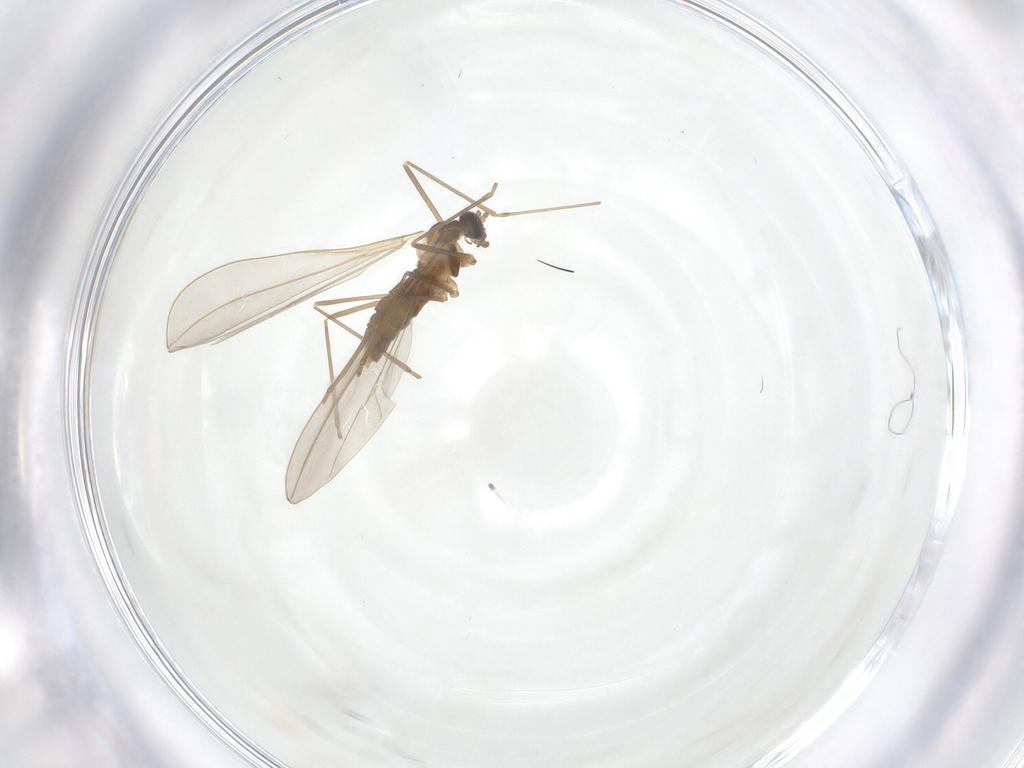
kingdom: Animalia
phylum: Arthropoda
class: Insecta
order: Diptera
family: Cecidomyiidae
